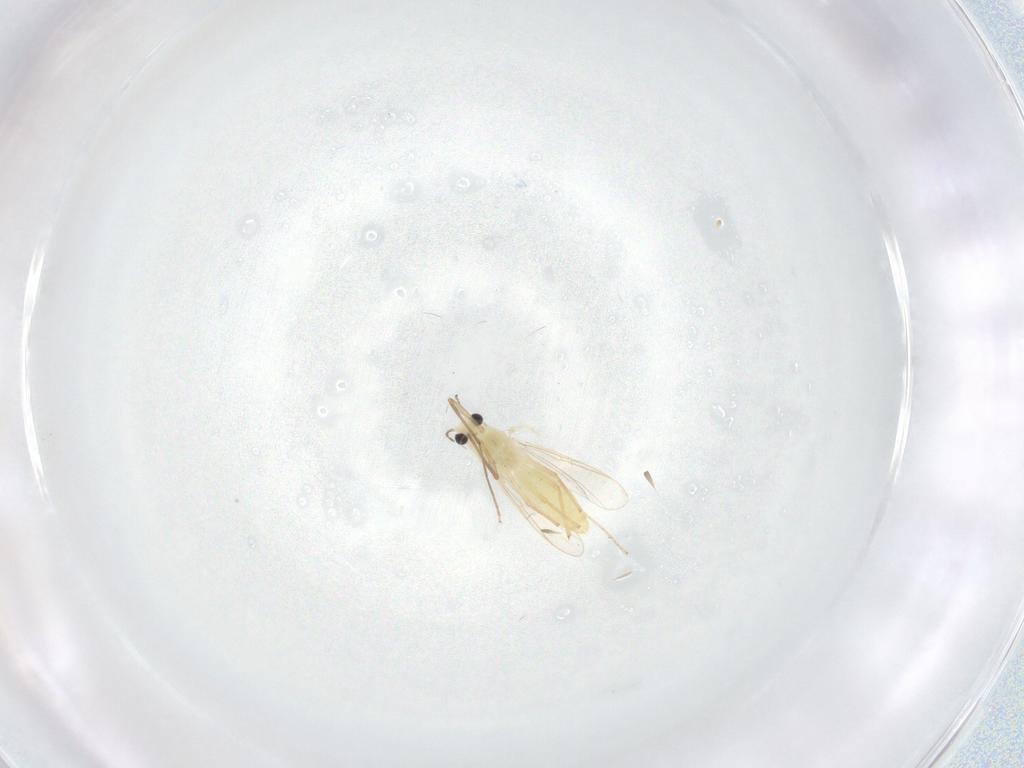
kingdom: Animalia
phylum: Arthropoda
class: Insecta
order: Diptera
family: Chironomidae
